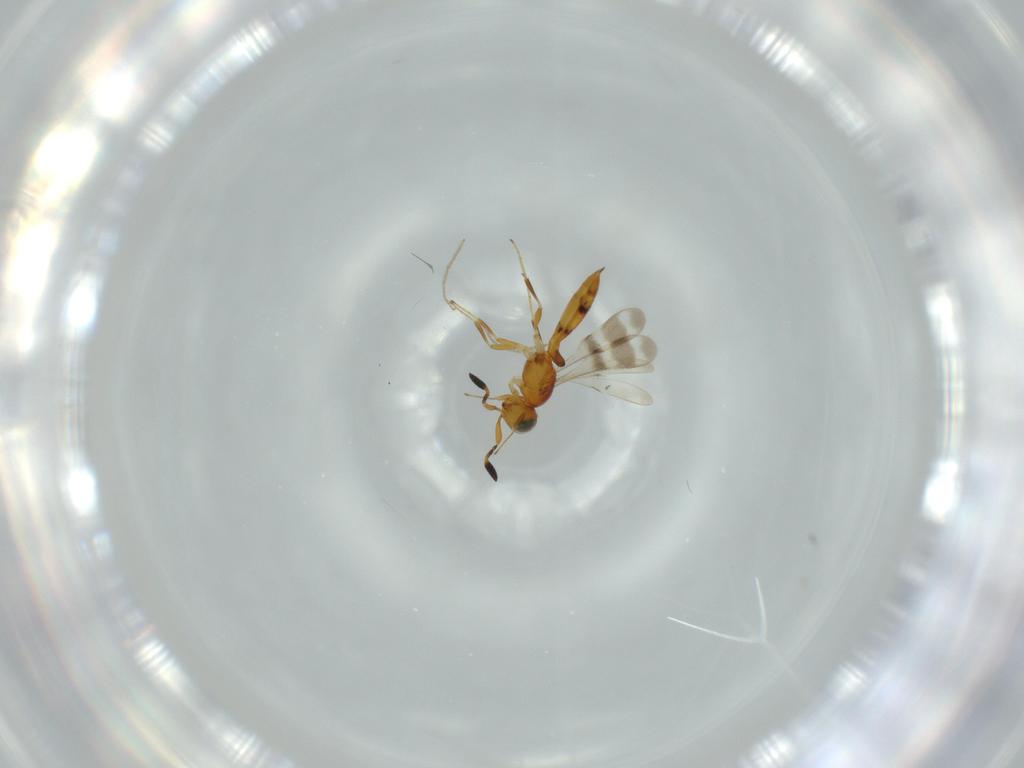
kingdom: Animalia
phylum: Arthropoda
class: Insecta
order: Hymenoptera
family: Scelionidae
